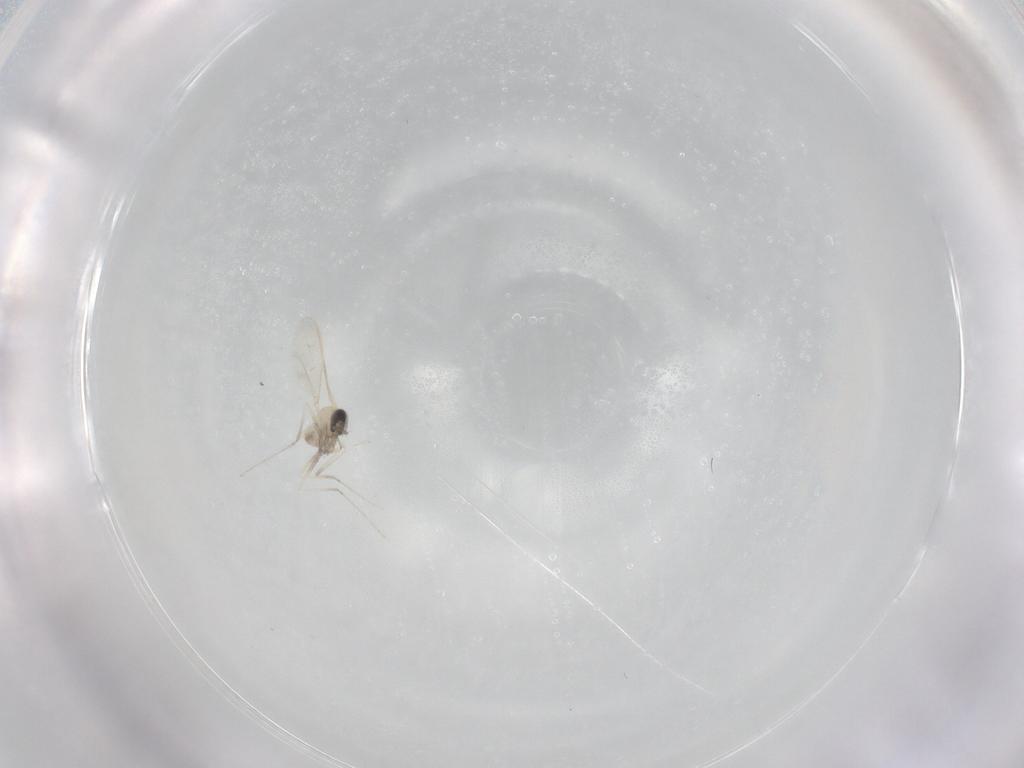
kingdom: Animalia
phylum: Arthropoda
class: Insecta
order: Diptera
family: Cecidomyiidae
